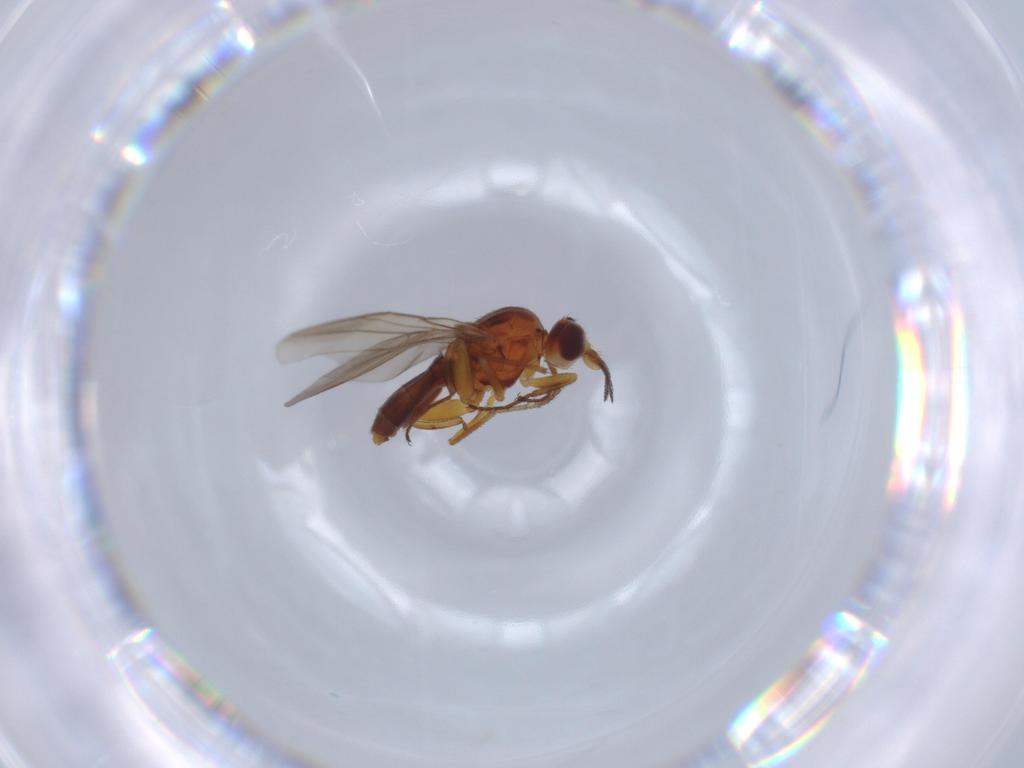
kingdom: Animalia
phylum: Arthropoda
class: Insecta
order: Diptera
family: Chloropidae
